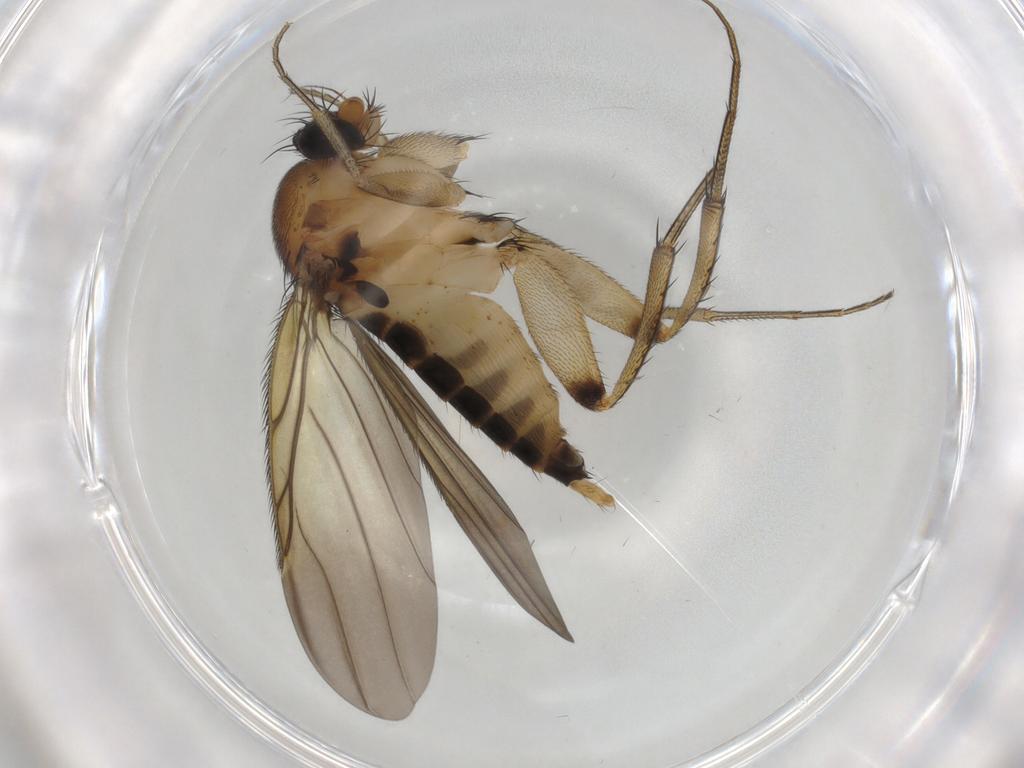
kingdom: Animalia
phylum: Arthropoda
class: Insecta
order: Diptera
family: Phoridae
